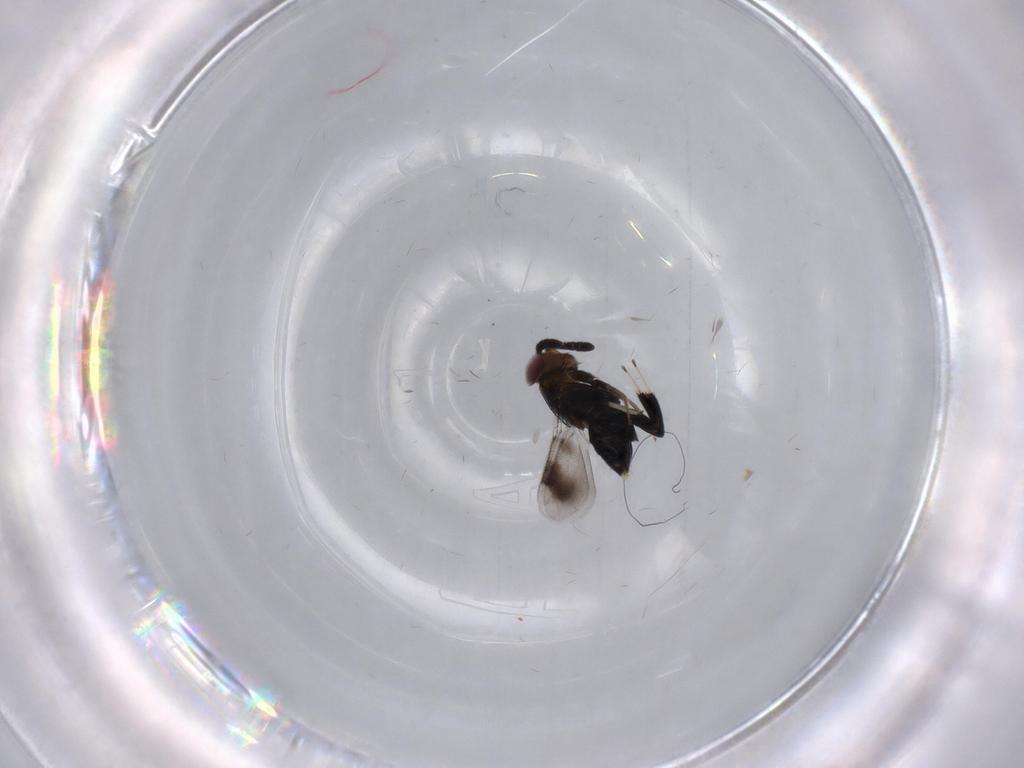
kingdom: Animalia
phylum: Arthropoda
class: Insecta
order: Hymenoptera
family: Aphelinidae
